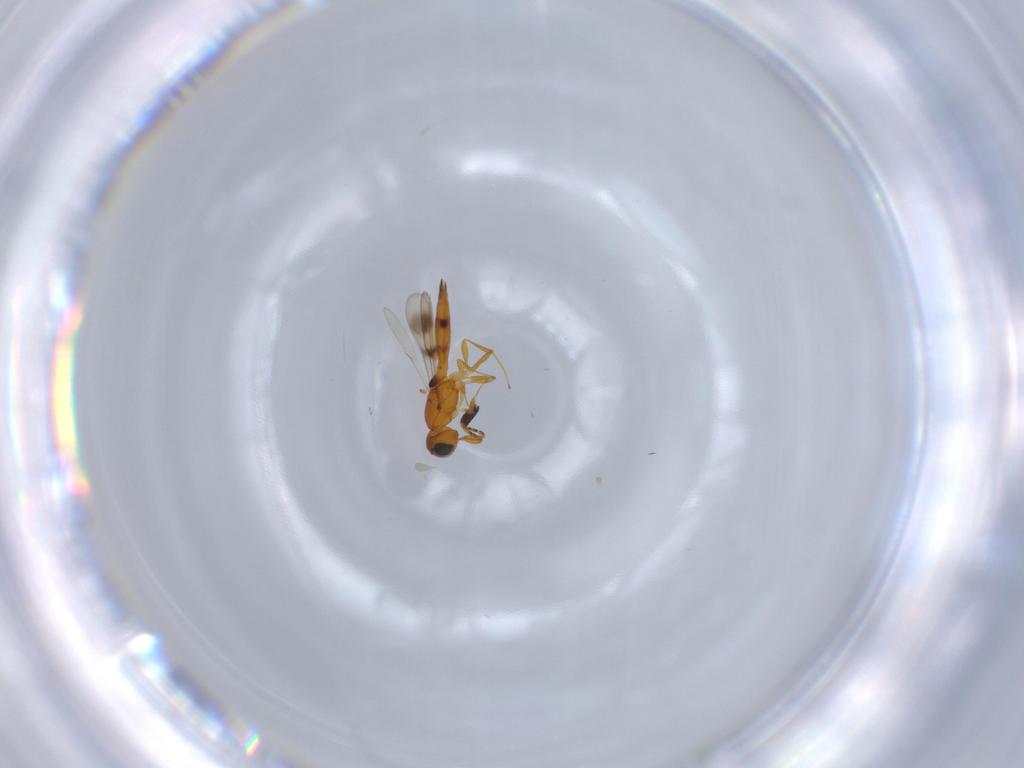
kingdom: Animalia
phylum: Arthropoda
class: Insecta
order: Hymenoptera
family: Scelionidae
